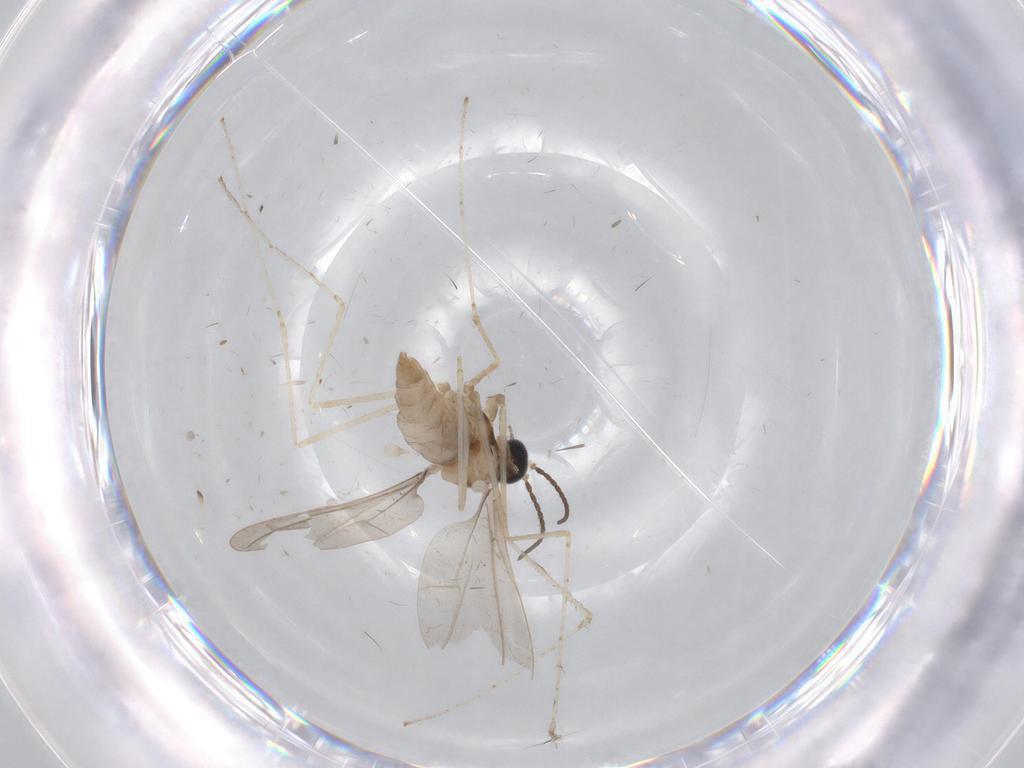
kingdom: Animalia
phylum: Arthropoda
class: Insecta
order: Diptera
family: Cecidomyiidae
